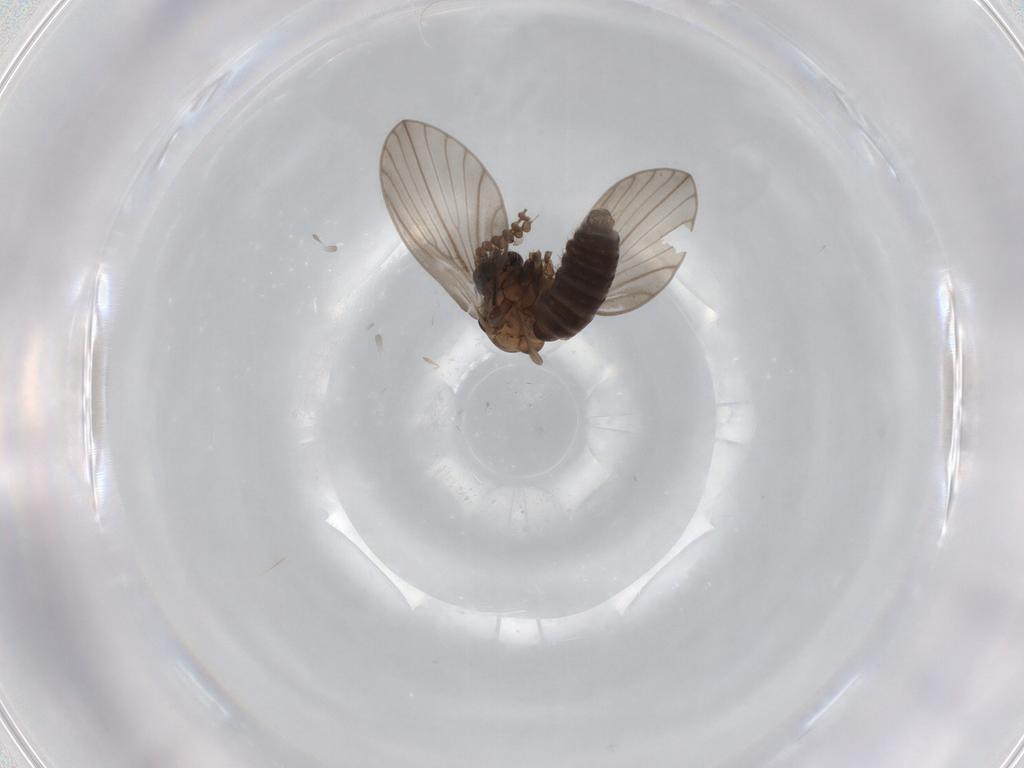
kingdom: Animalia
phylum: Arthropoda
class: Insecta
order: Diptera
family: Psychodidae
